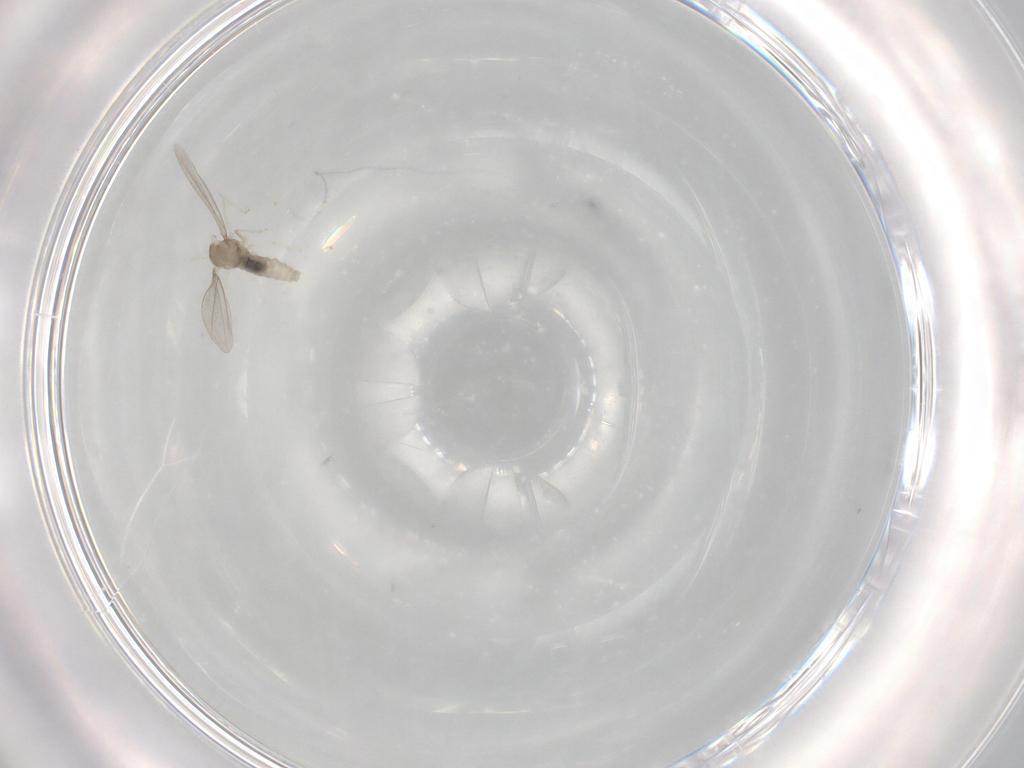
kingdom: Animalia
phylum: Arthropoda
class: Insecta
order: Diptera
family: Cecidomyiidae
